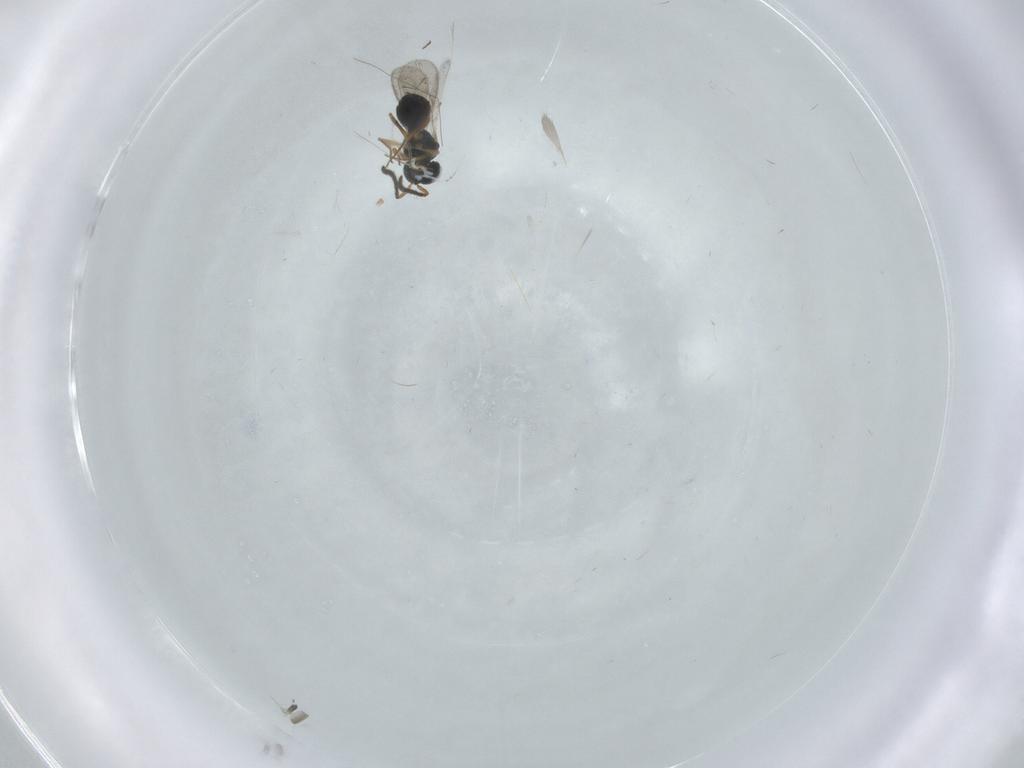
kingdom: Animalia
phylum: Arthropoda
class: Insecta
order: Hymenoptera
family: Scelionidae
